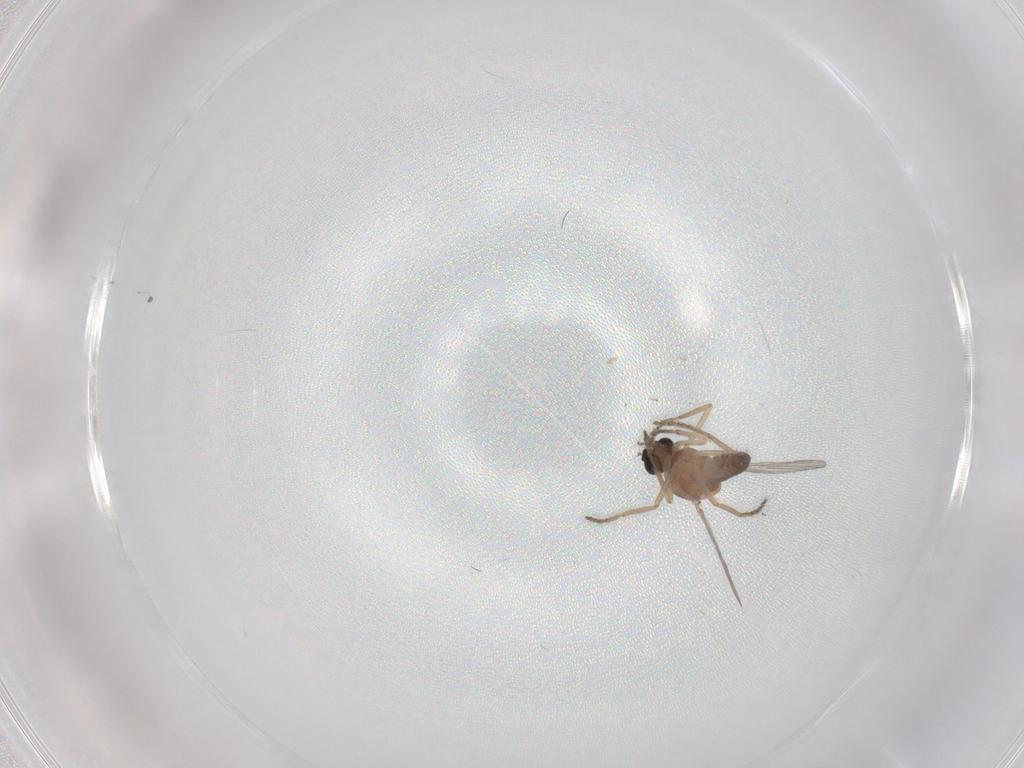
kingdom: Animalia
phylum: Arthropoda
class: Insecta
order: Diptera
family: Ceratopogonidae
